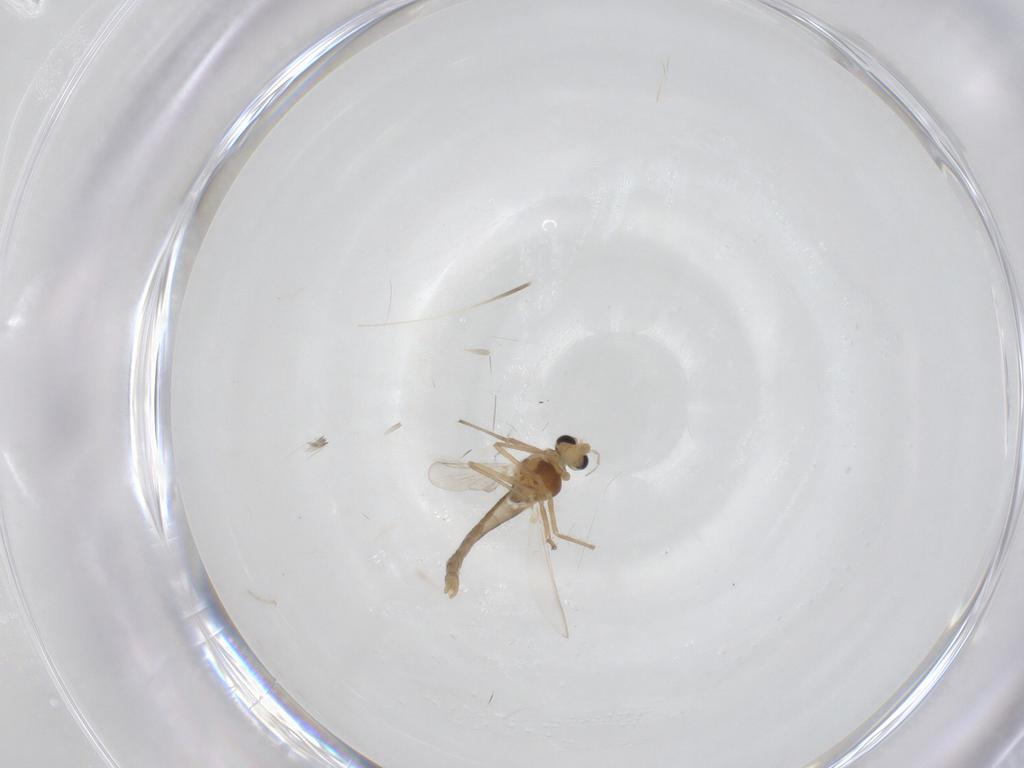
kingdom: Animalia
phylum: Arthropoda
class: Insecta
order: Diptera
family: Chironomidae
